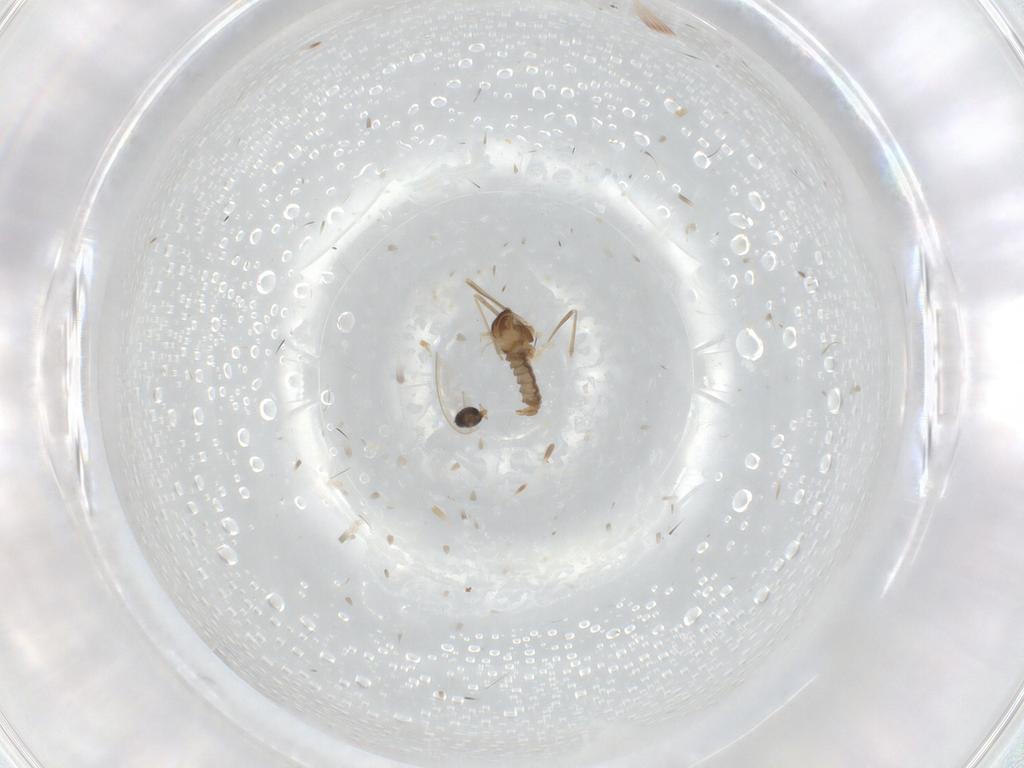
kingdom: Animalia
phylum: Arthropoda
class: Insecta
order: Diptera
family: Cecidomyiidae
